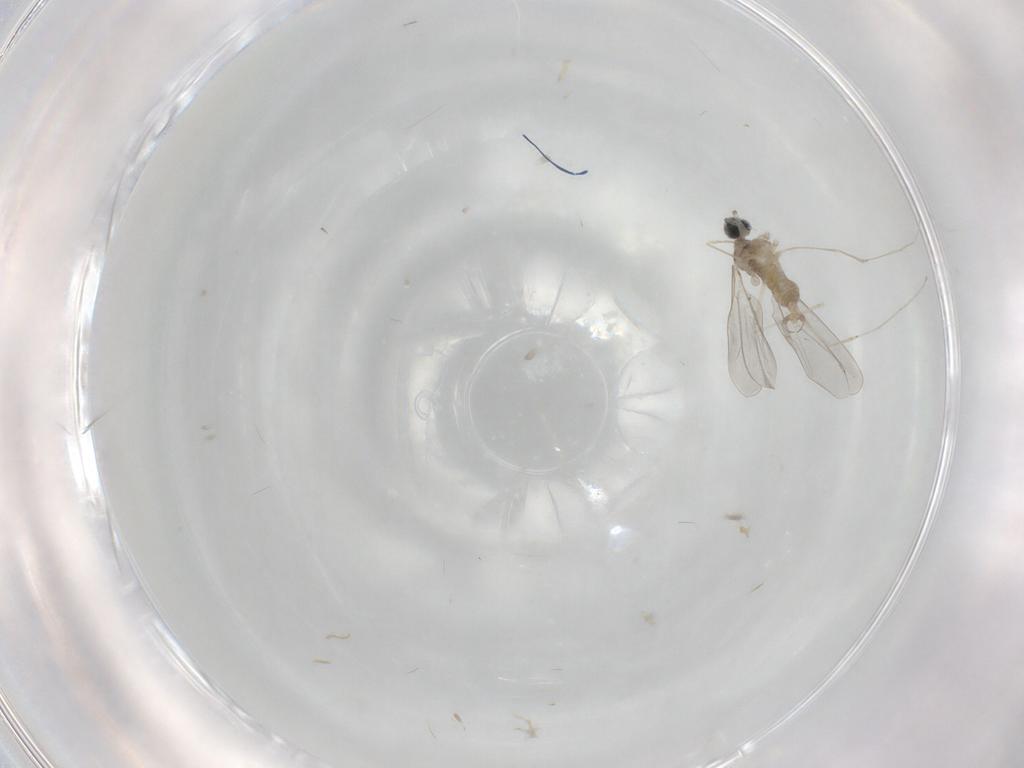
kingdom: Animalia
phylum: Arthropoda
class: Insecta
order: Diptera
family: Cecidomyiidae
